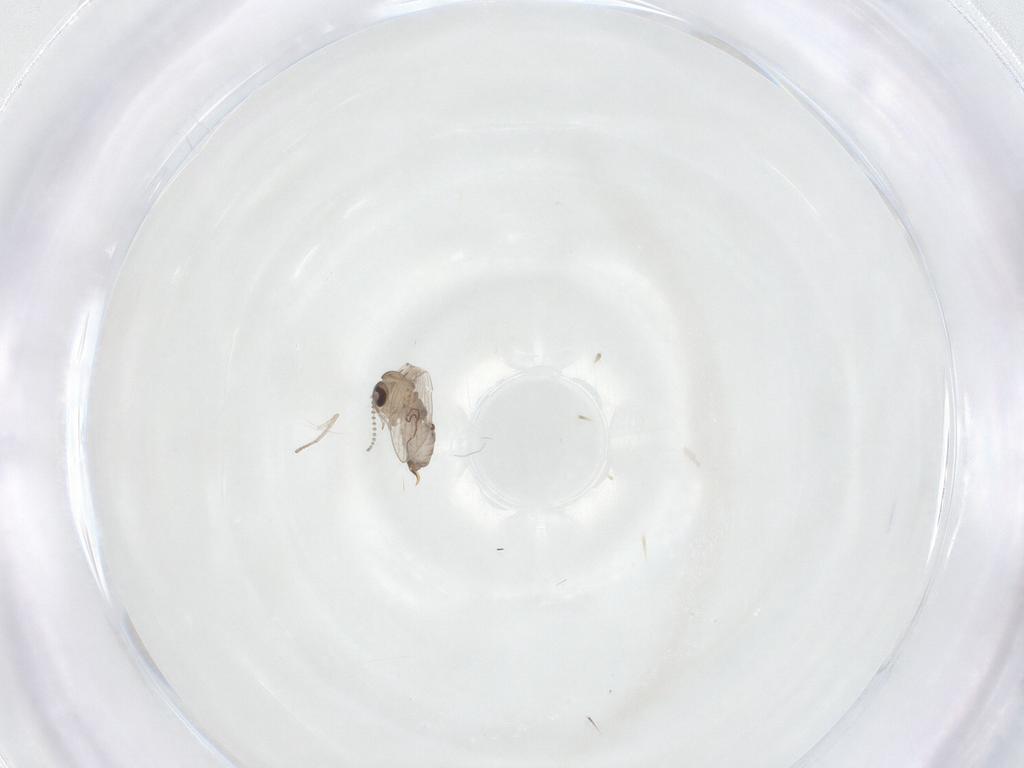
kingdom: Animalia
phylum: Arthropoda
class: Insecta
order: Diptera
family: Psychodidae
